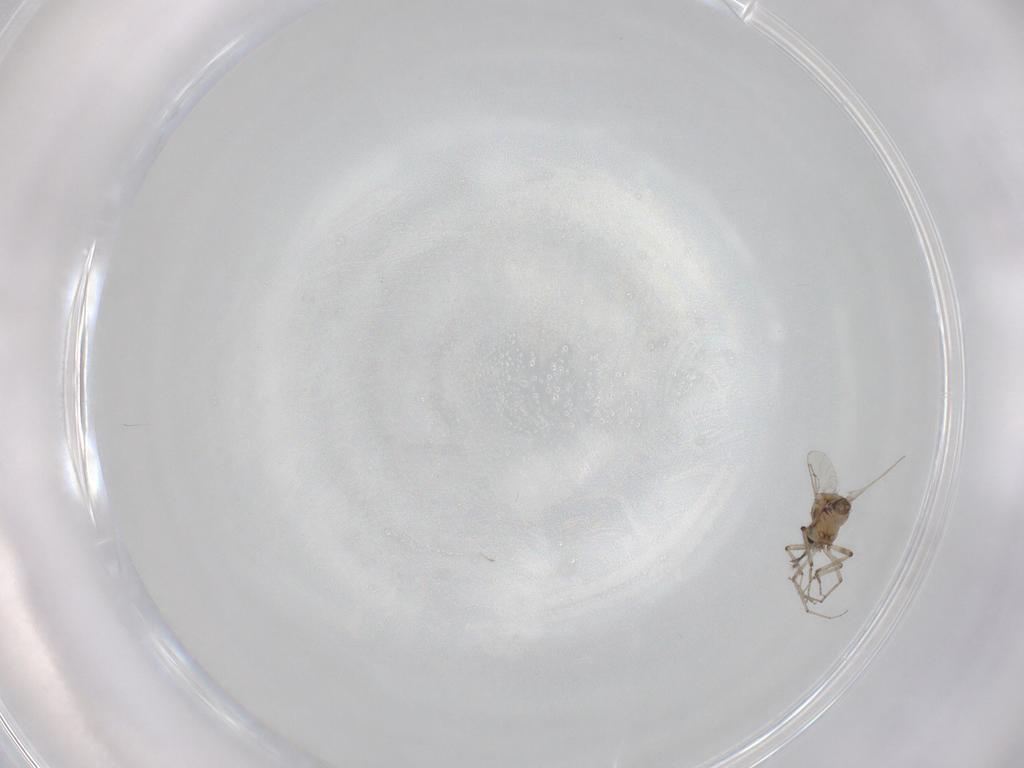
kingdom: Animalia
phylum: Arthropoda
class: Insecta
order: Diptera
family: Ceratopogonidae
